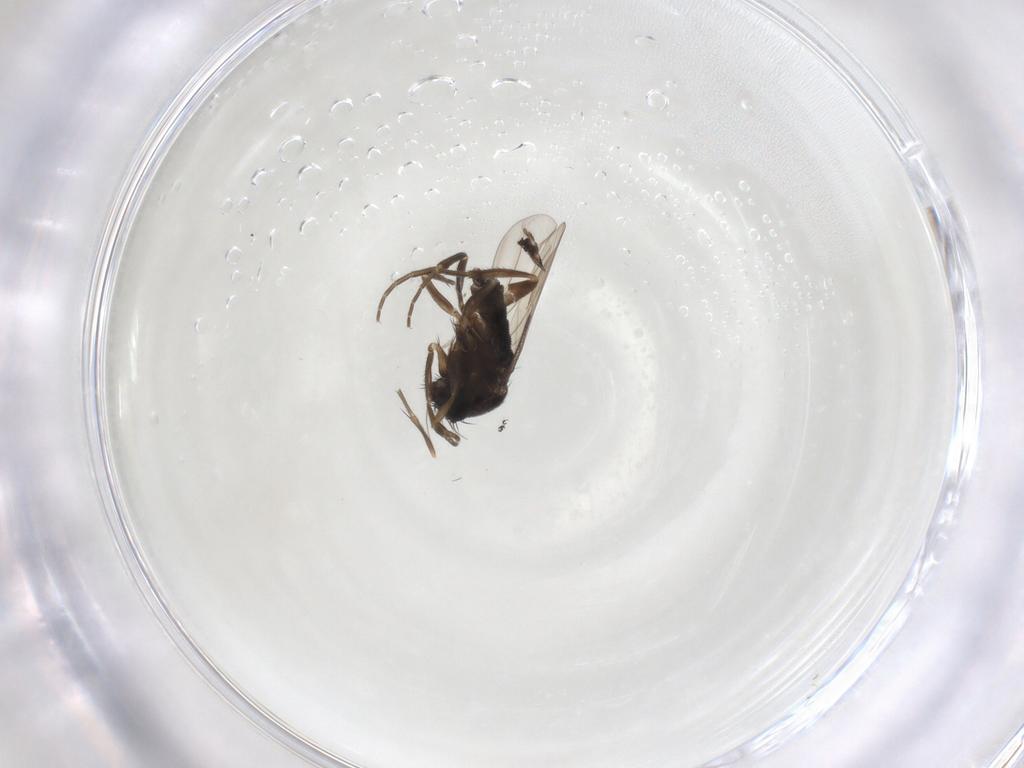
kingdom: Animalia
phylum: Arthropoda
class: Insecta
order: Diptera
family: Phoridae
